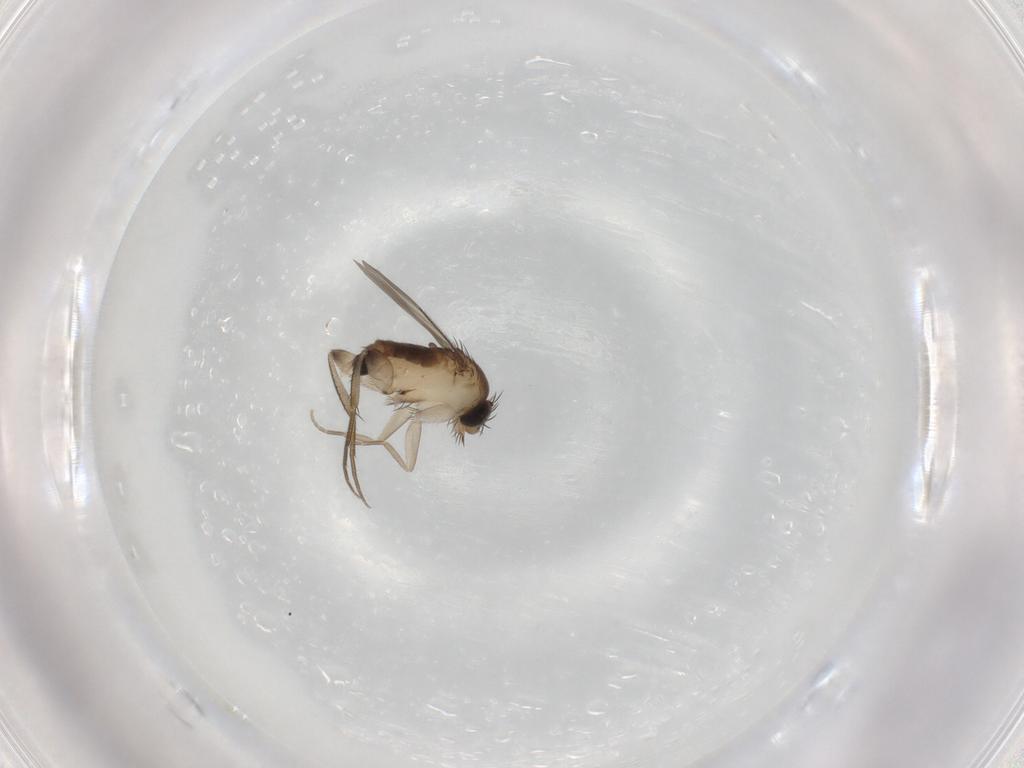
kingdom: Animalia
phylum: Arthropoda
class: Insecta
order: Diptera
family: Phoridae
